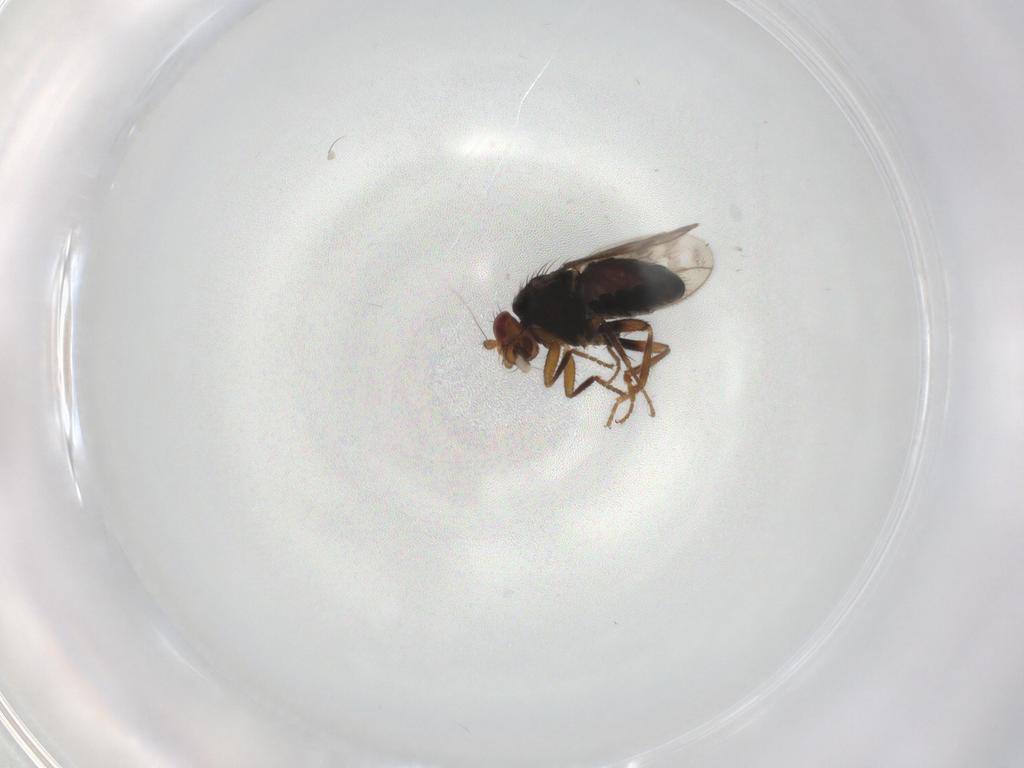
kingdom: Animalia
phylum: Arthropoda
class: Insecta
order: Diptera
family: Sphaeroceridae
